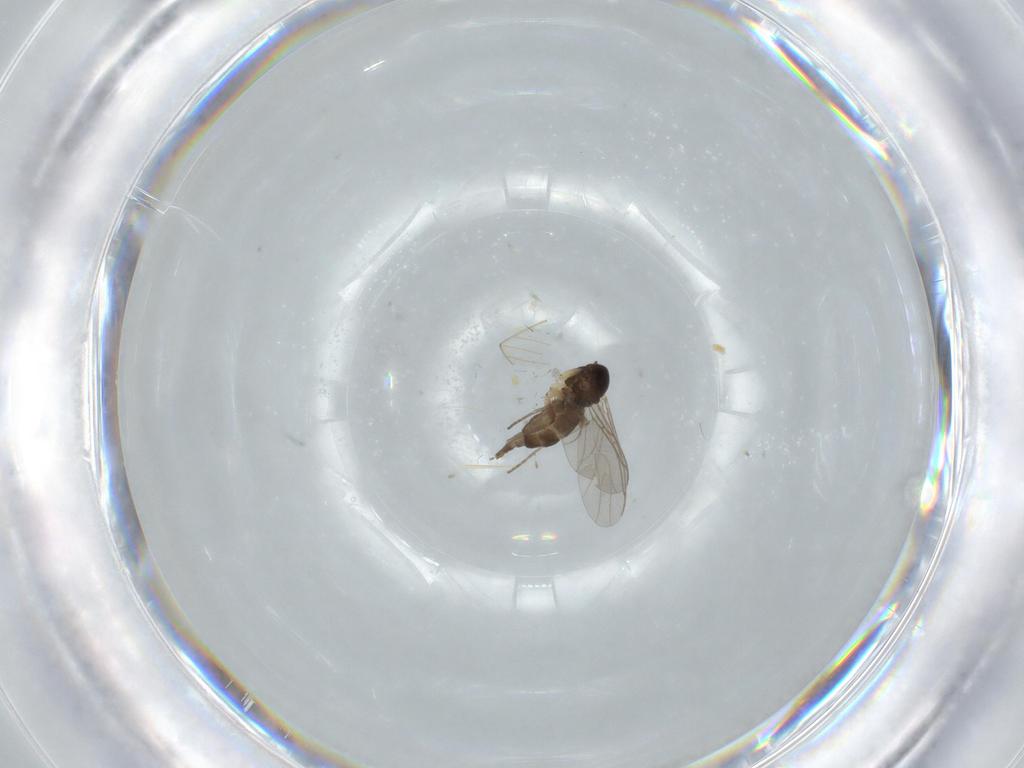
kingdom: Animalia
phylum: Arthropoda
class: Insecta
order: Diptera
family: Sciaridae
